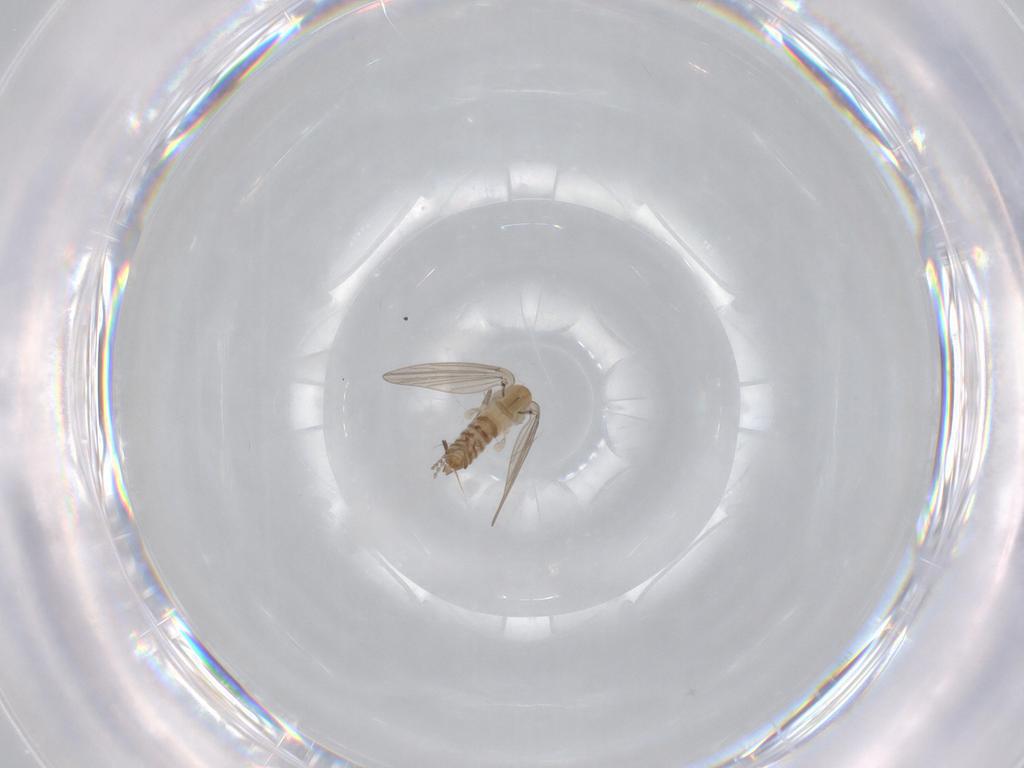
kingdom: Animalia
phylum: Arthropoda
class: Insecta
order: Diptera
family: Psychodidae
